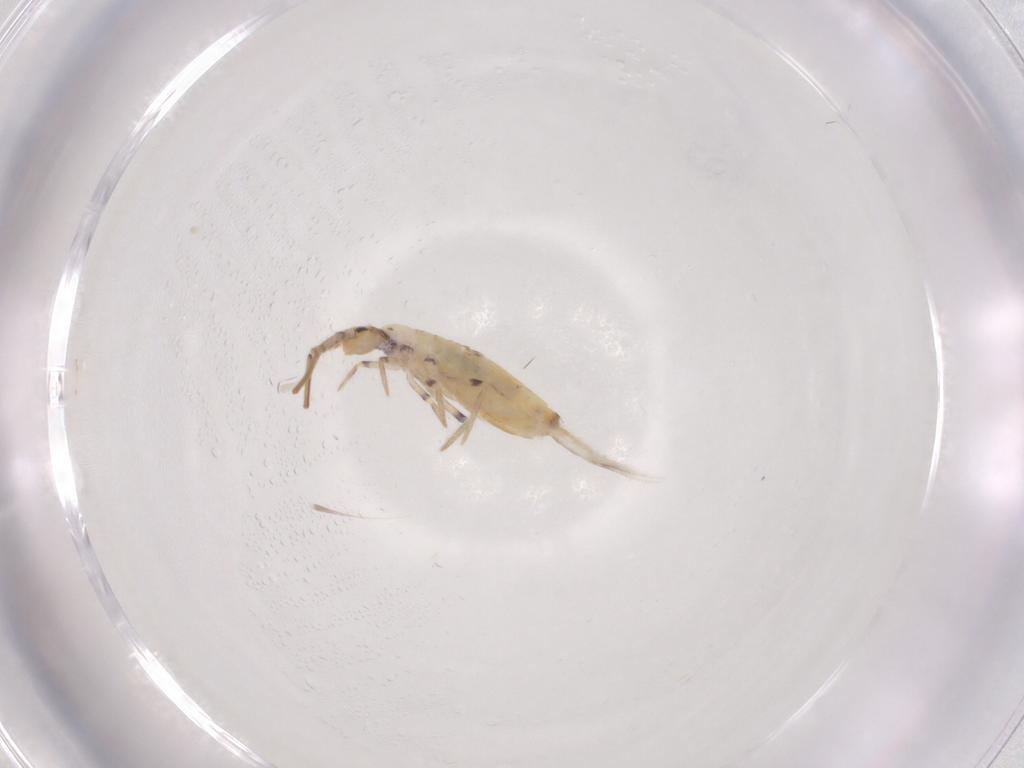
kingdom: Animalia
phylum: Arthropoda
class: Collembola
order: Entomobryomorpha
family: Entomobryidae
